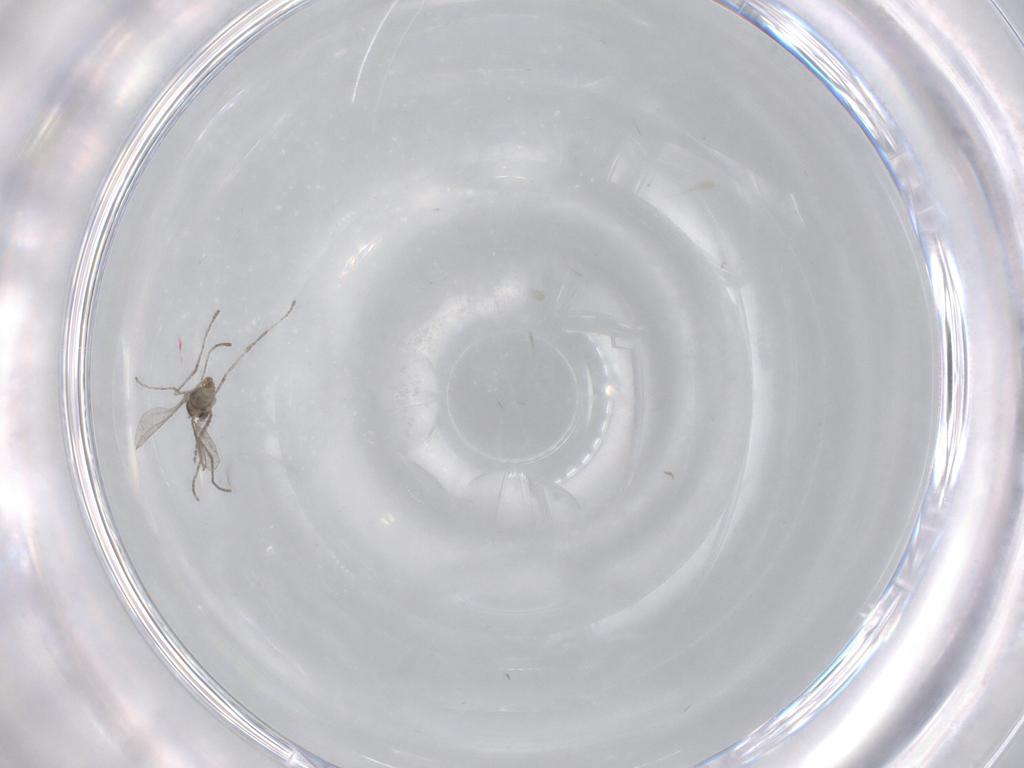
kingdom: Animalia
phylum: Arthropoda
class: Insecta
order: Diptera
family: Chironomidae
